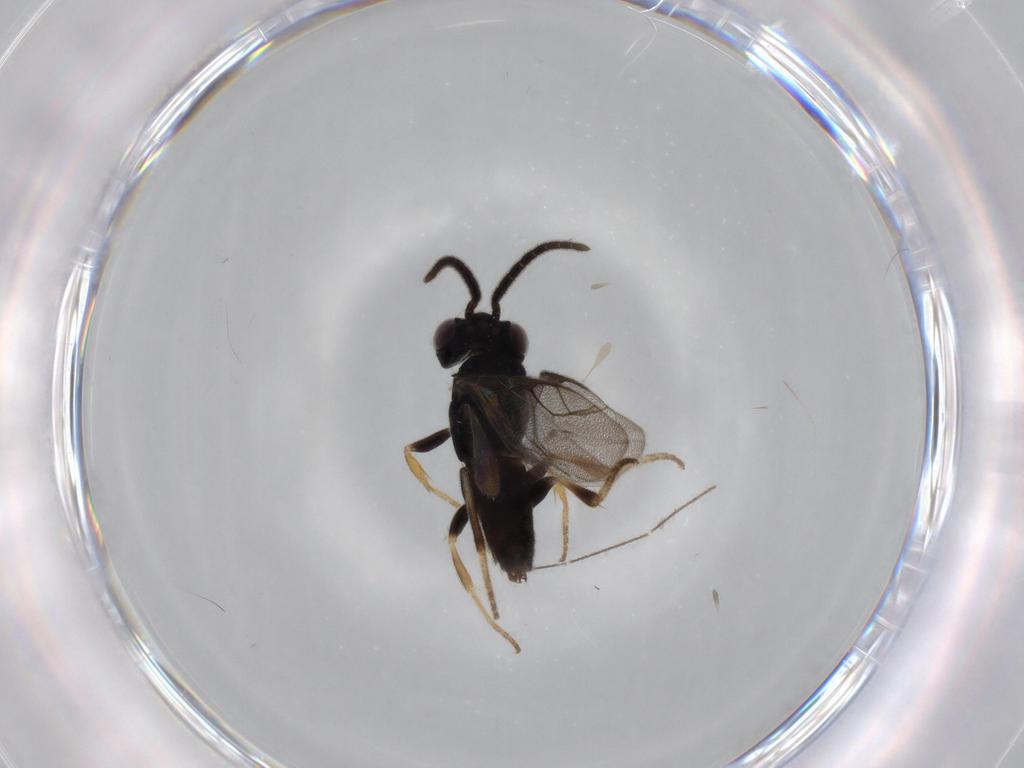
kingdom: Animalia
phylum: Arthropoda
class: Insecta
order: Hymenoptera
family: Dryinidae
